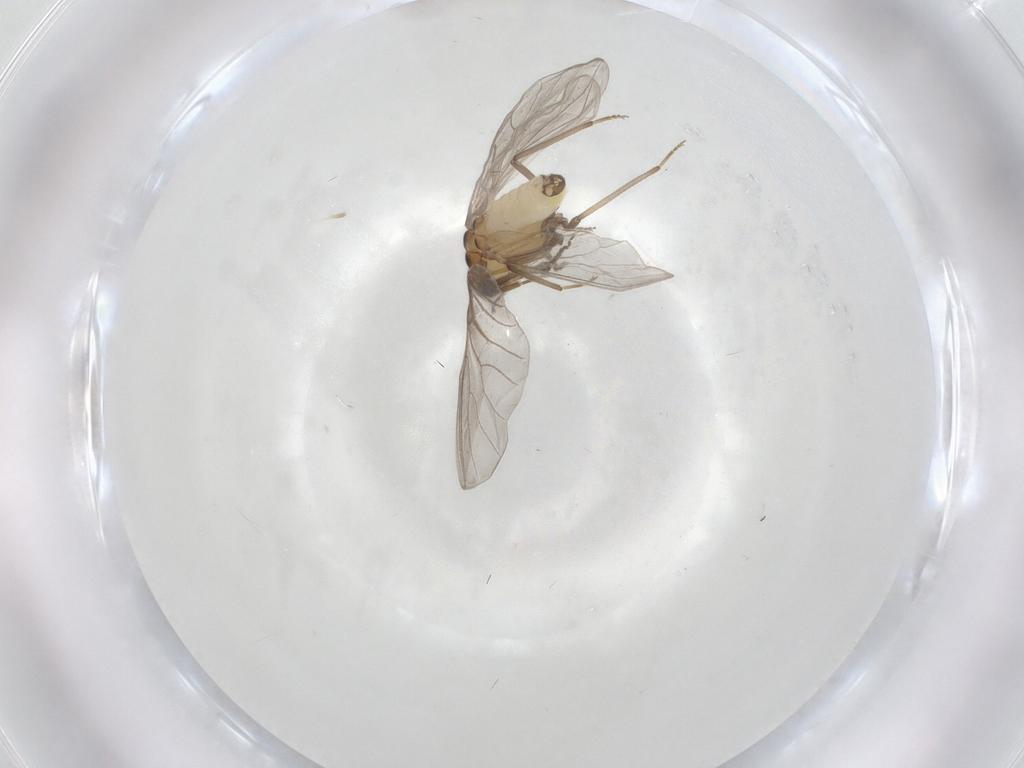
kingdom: Animalia
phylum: Arthropoda
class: Insecta
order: Neuroptera
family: Coniopterygidae
